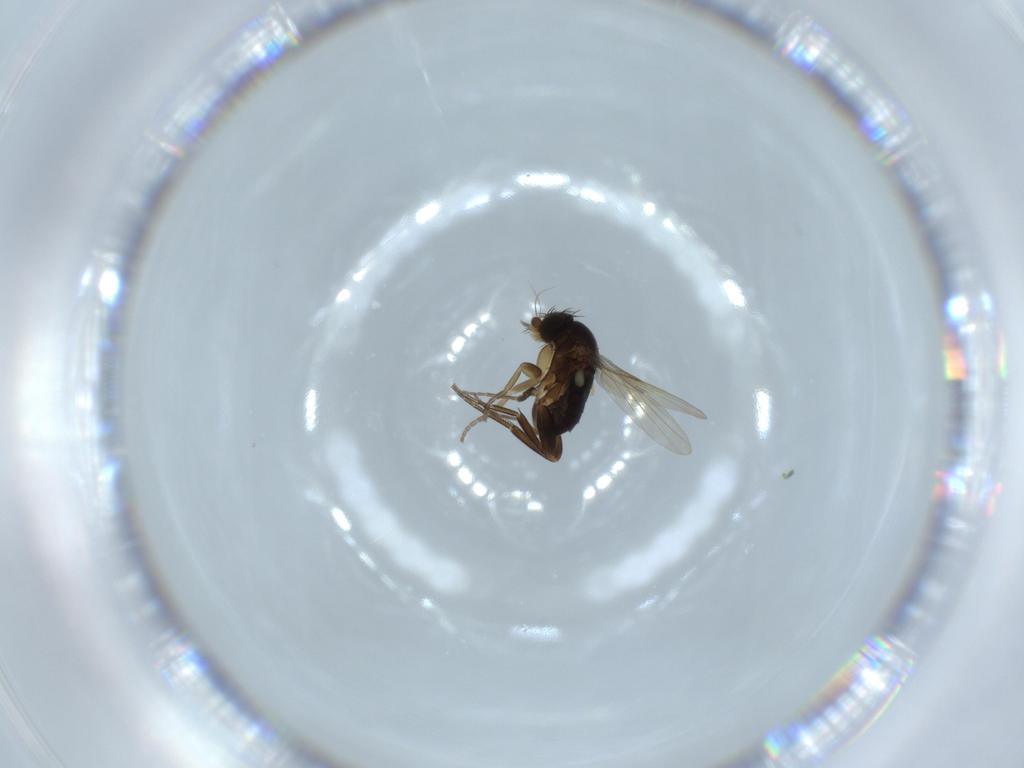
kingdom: Animalia
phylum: Arthropoda
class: Insecta
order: Diptera
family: Phoridae
